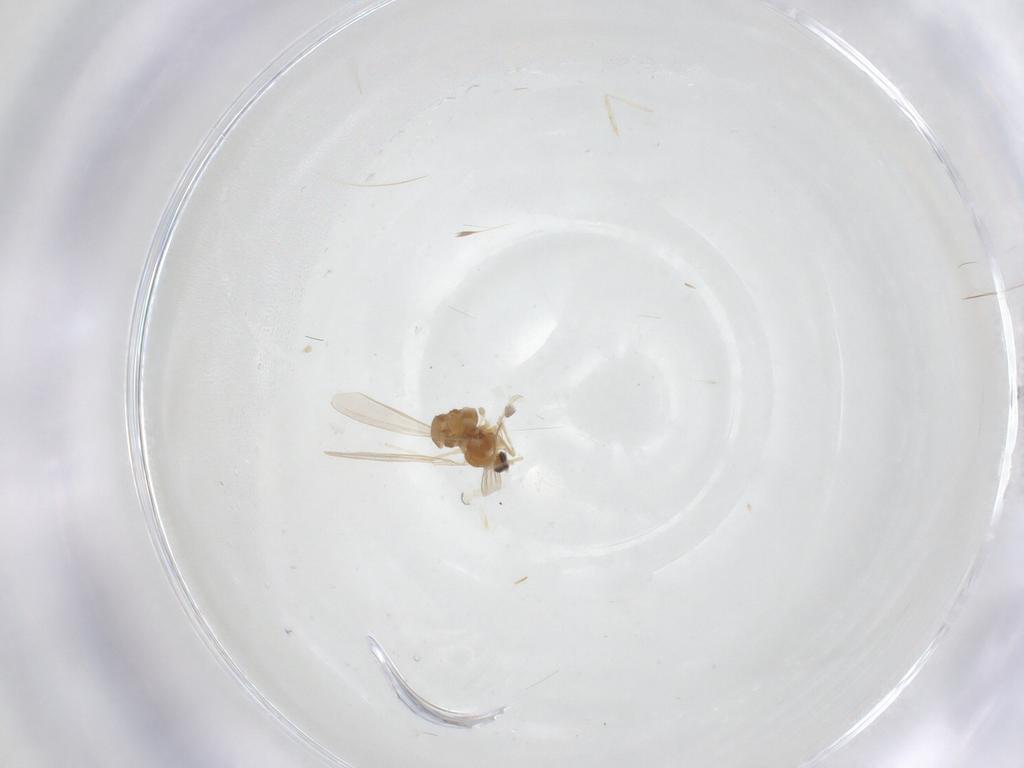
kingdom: Animalia
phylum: Arthropoda
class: Insecta
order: Diptera
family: Cecidomyiidae
